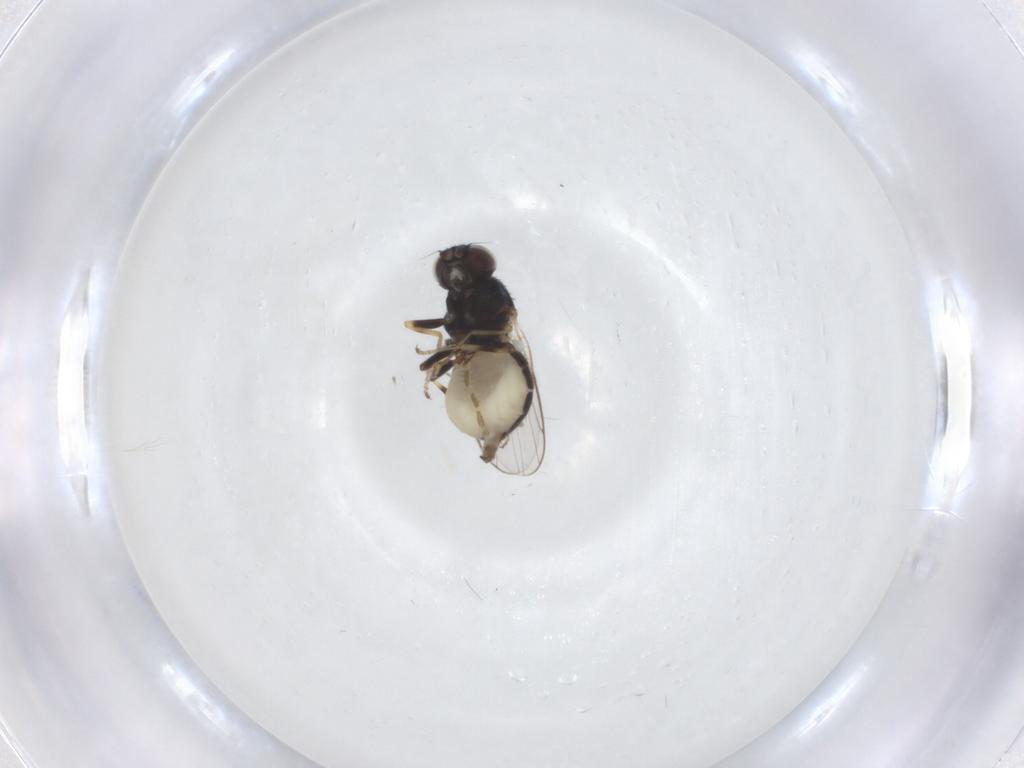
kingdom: Animalia
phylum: Arthropoda
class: Insecta
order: Diptera
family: Chloropidae
